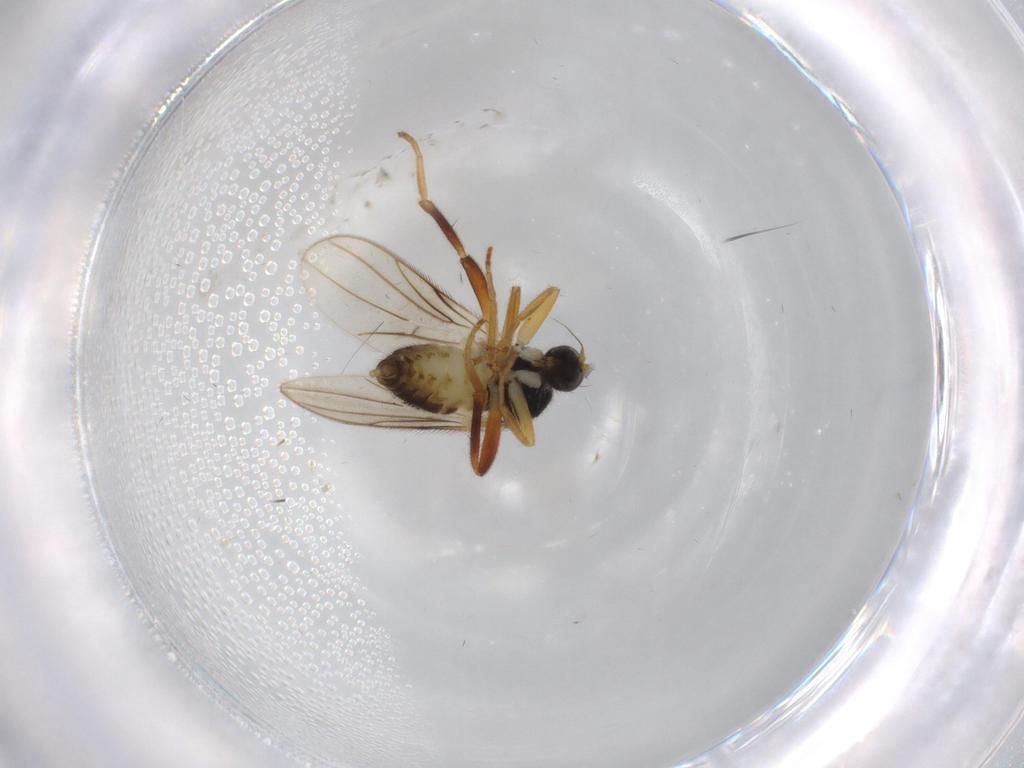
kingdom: Animalia
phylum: Arthropoda
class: Insecta
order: Diptera
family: Hybotidae
